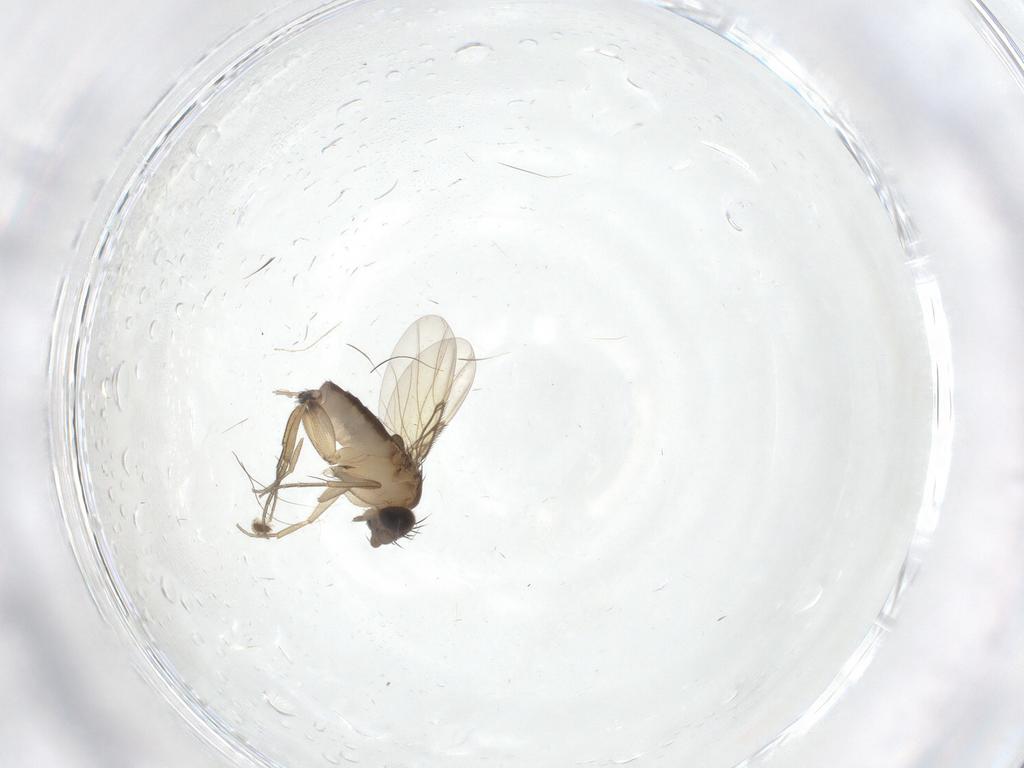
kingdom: Animalia
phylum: Arthropoda
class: Insecta
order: Diptera
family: Phoridae
